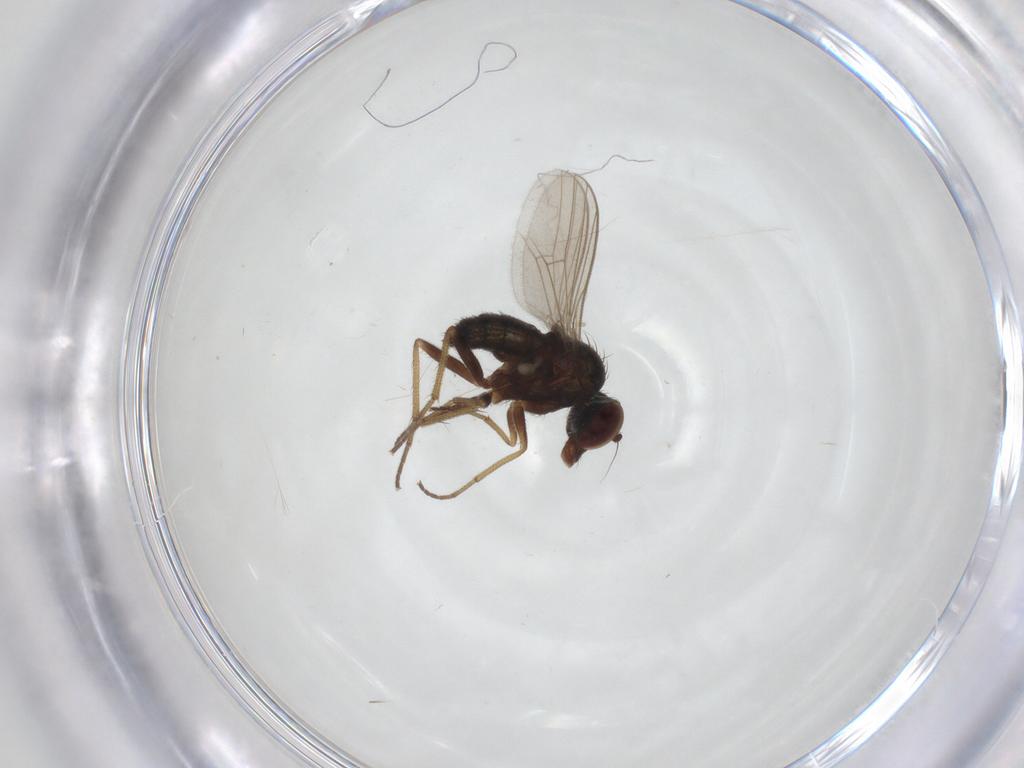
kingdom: Animalia
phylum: Arthropoda
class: Insecta
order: Diptera
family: Dolichopodidae
